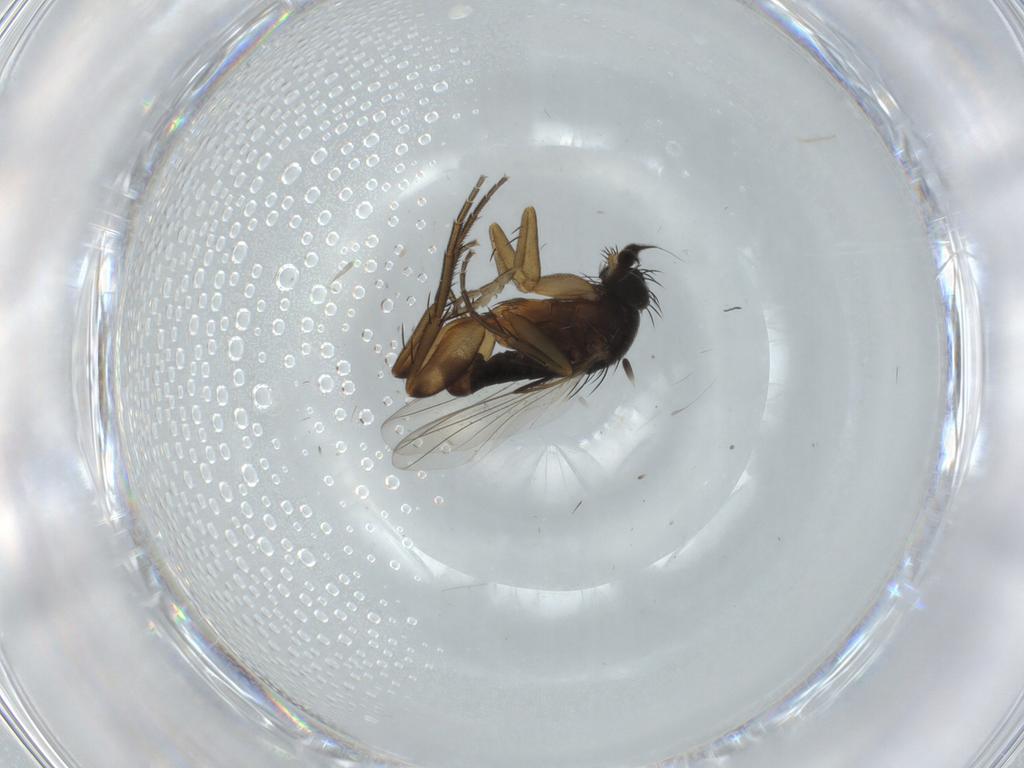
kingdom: Animalia
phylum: Arthropoda
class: Insecta
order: Diptera
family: Phoridae
